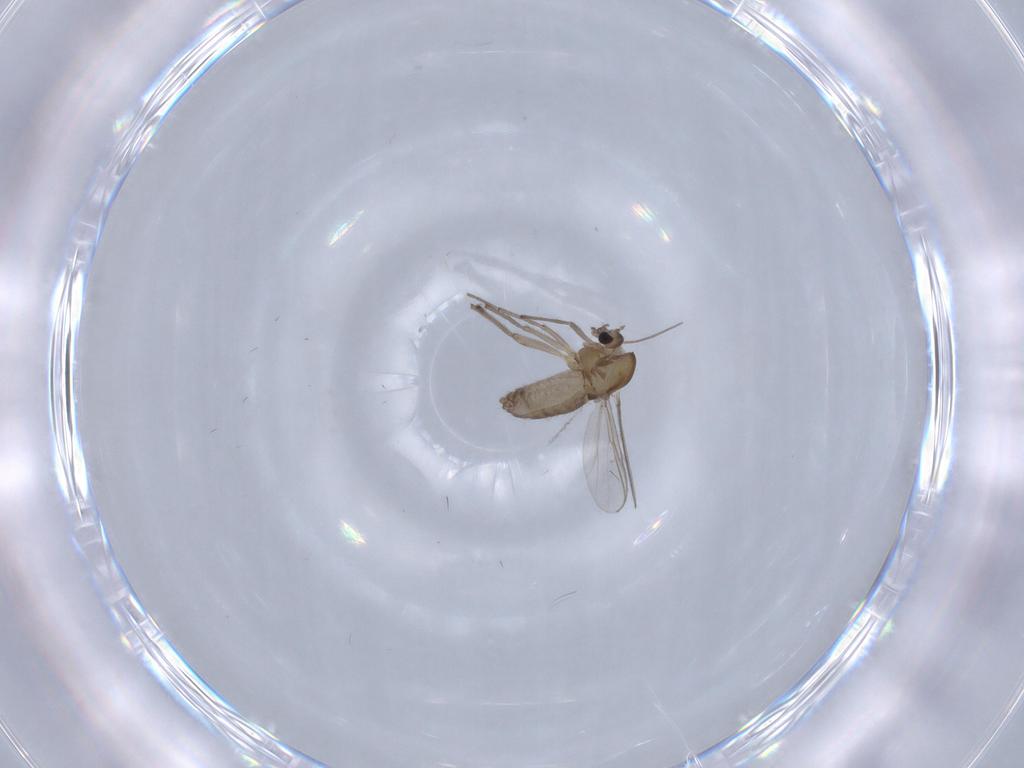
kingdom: Animalia
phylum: Arthropoda
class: Insecta
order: Diptera
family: Chironomidae
